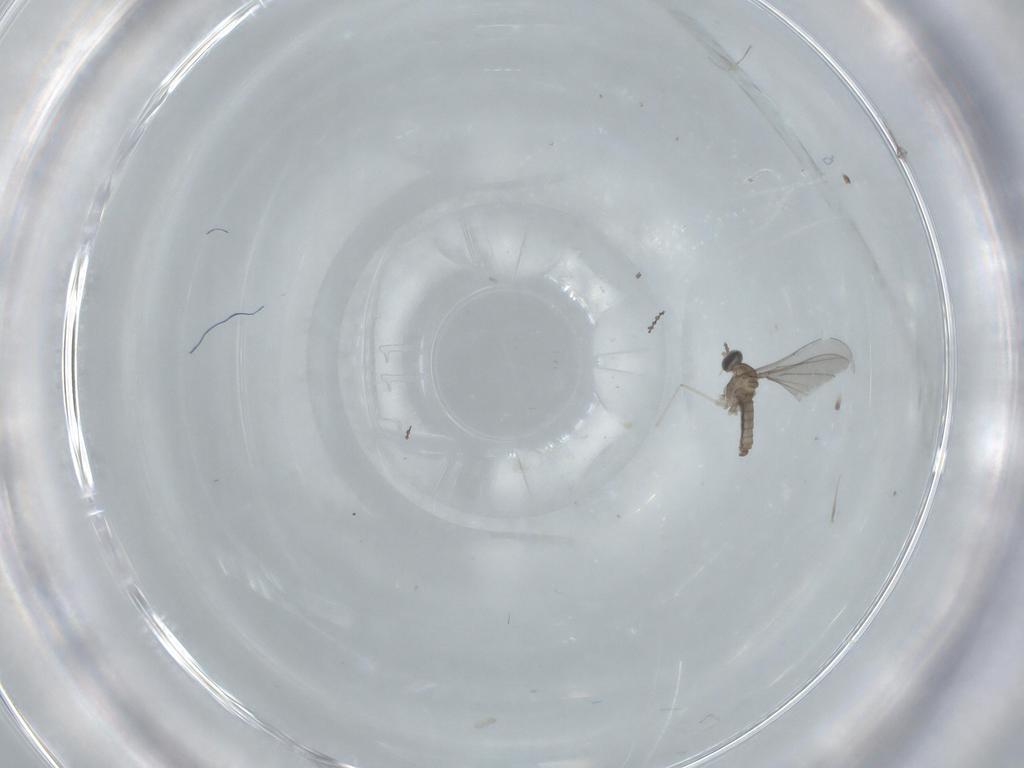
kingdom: Animalia
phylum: Arthropoda
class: Insecta
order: Diptera
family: Cecidomyiidae
